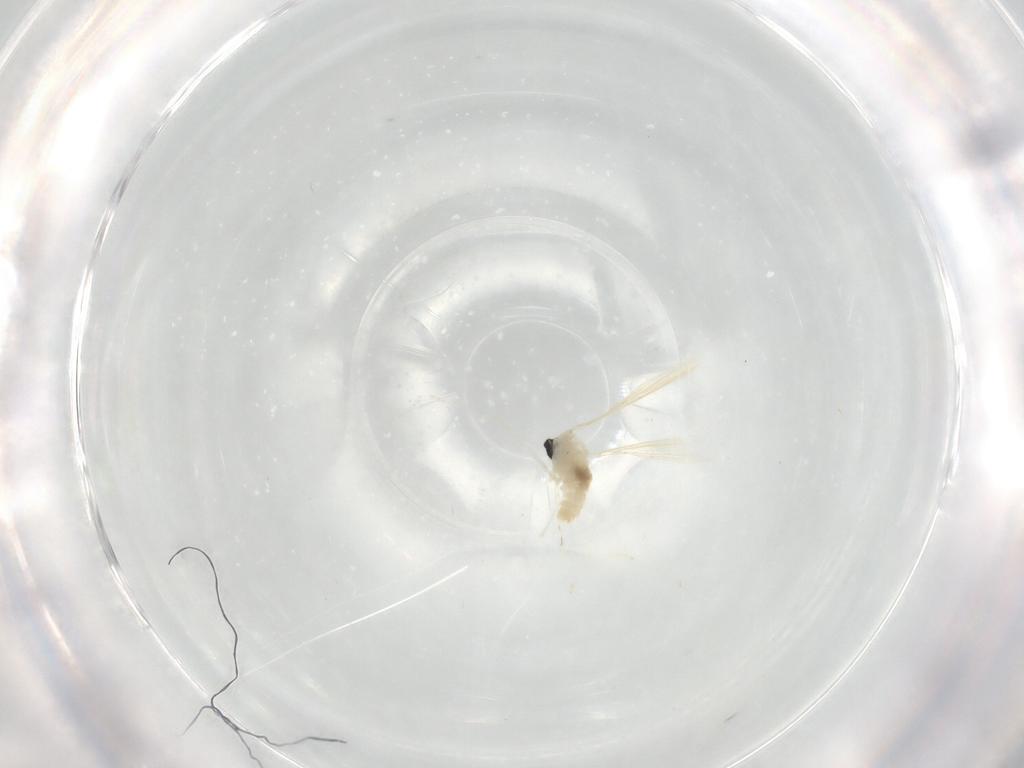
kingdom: Animalia
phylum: Arthropoda
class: Insecta
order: Diptera
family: Cecidomyiidae
